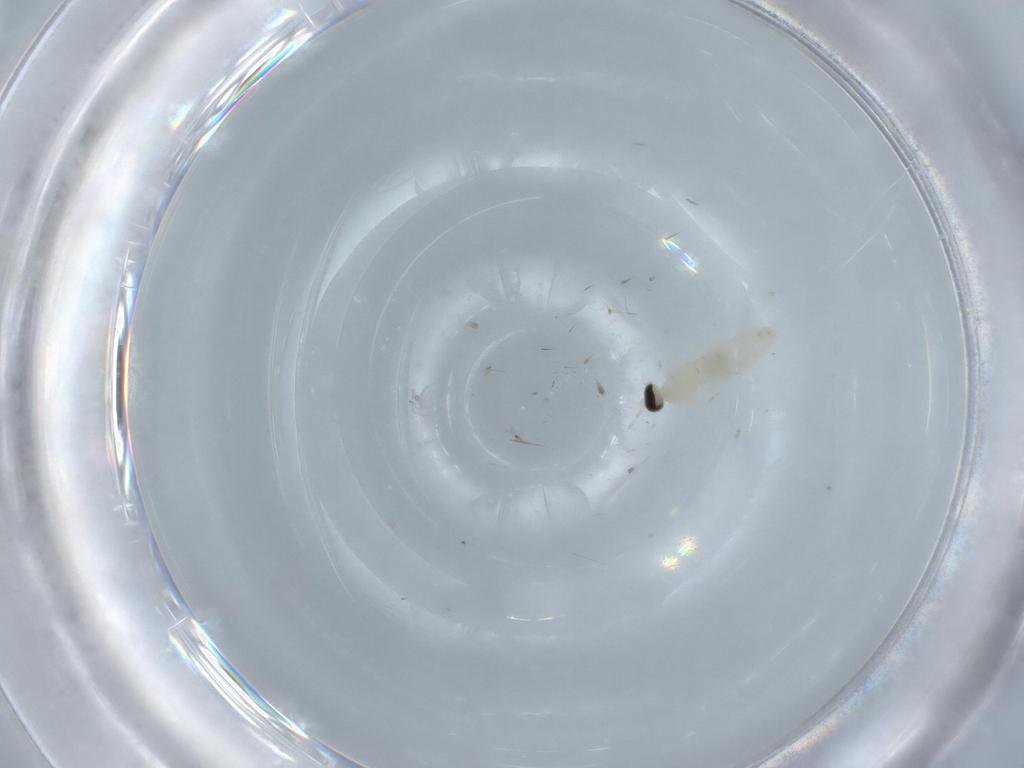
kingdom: Animalia
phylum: Arthropoda
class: Insecta
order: Diptera
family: Cecidomyiidae
